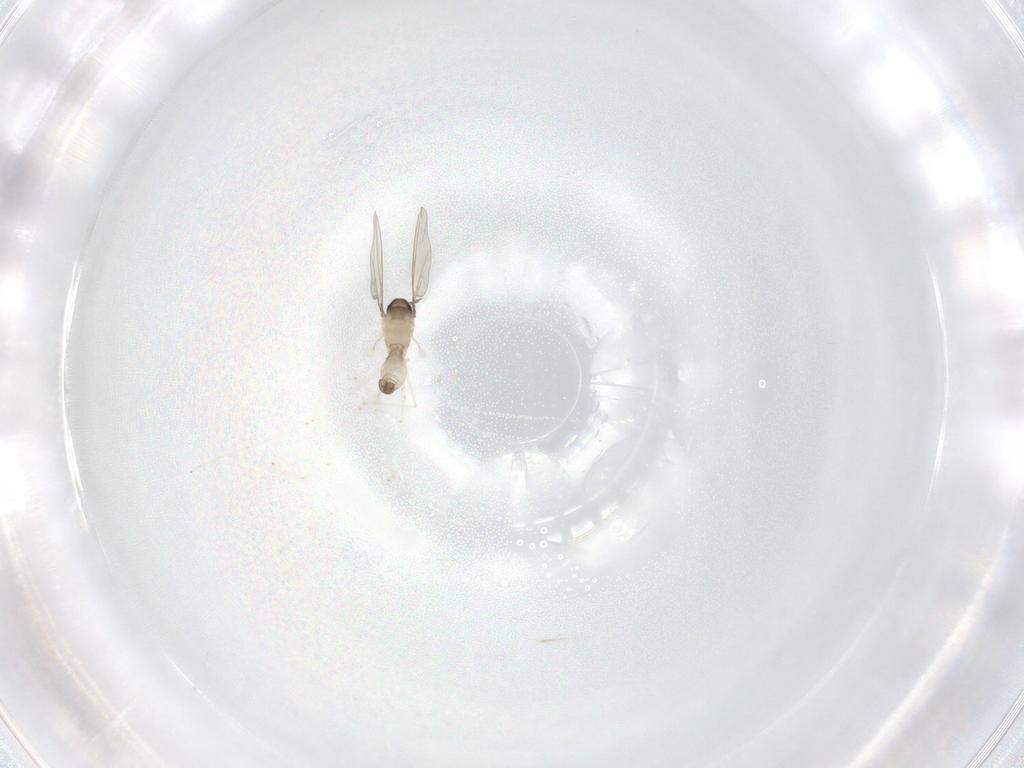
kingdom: Animalia
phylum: Arthropoda
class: Insecta
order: Diptera
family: Cecidomyiidae
